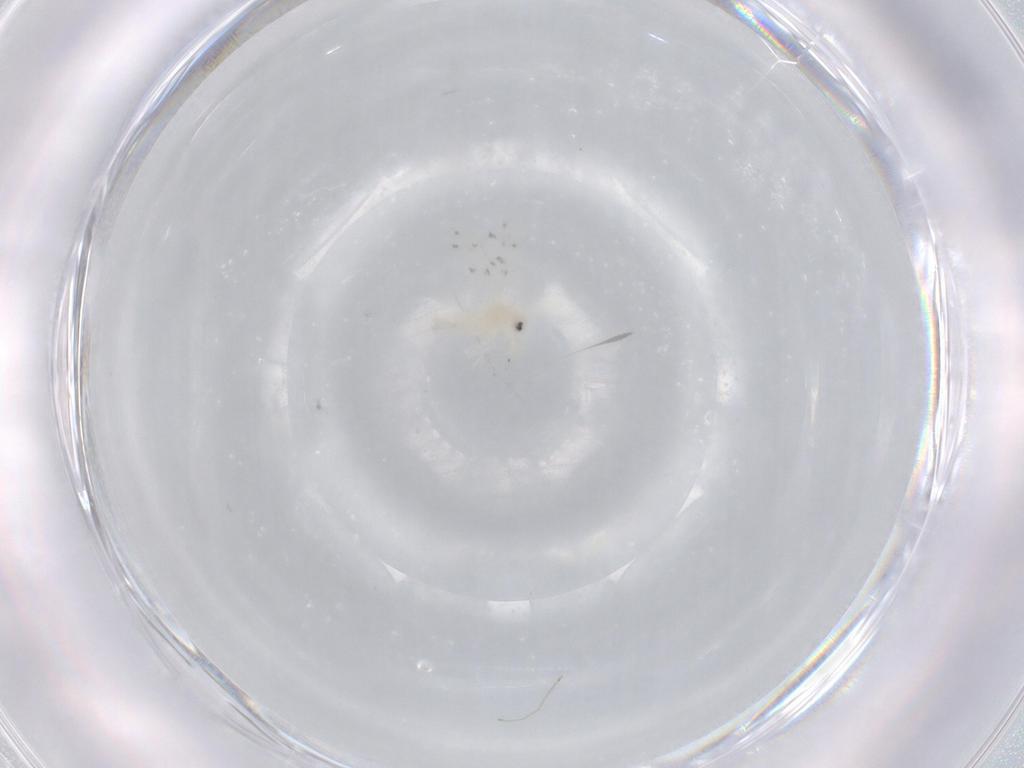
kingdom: Animalia
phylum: Arthropoda
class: Insecta
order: Hemiptera
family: Aleyrodidae
